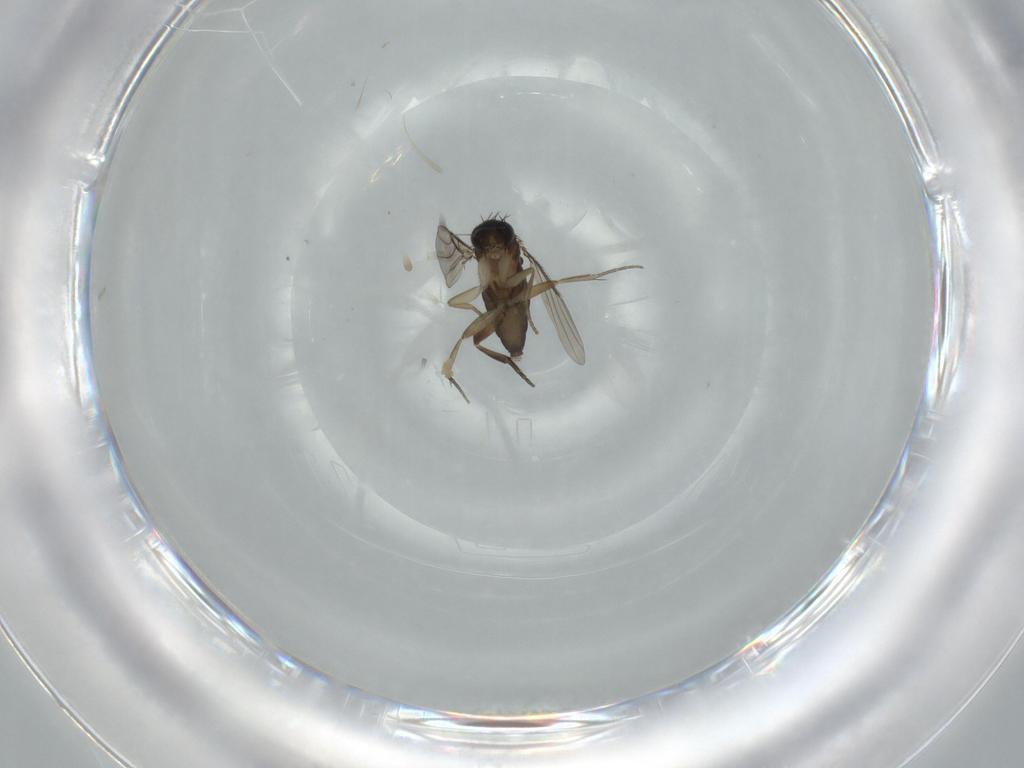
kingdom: Animalia
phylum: Arthropoda
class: Insecta
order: Diptera
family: Phoridae
